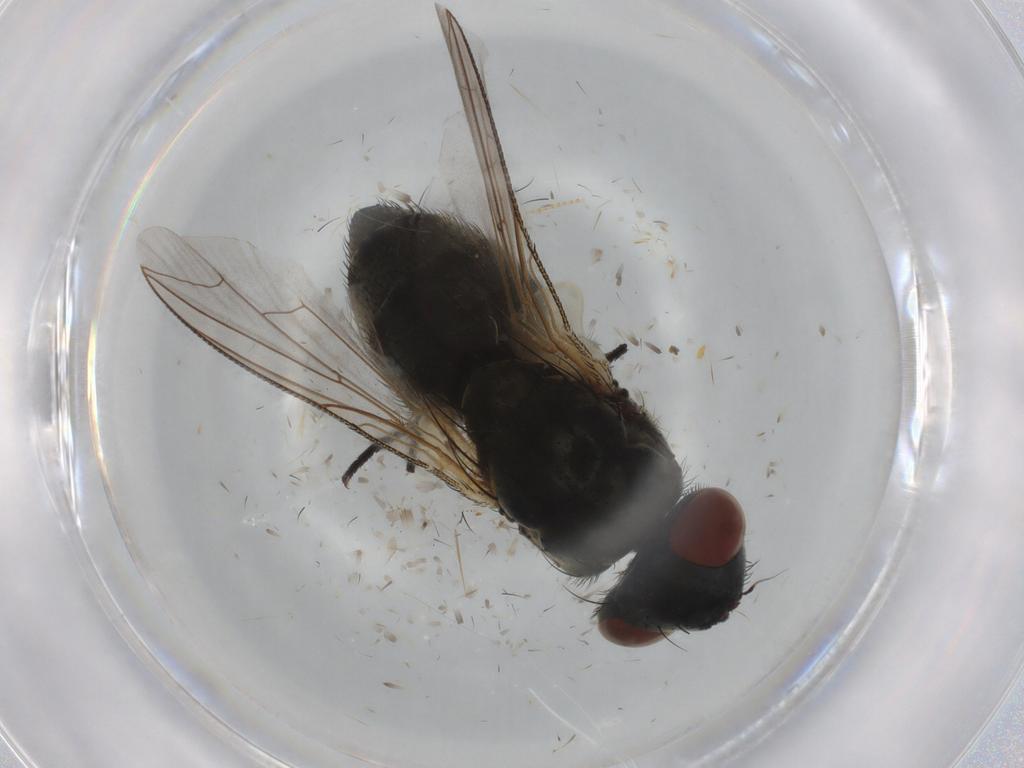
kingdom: Animalia
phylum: Arthropoda
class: Insecta
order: Diptera
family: Sarcophagidae
